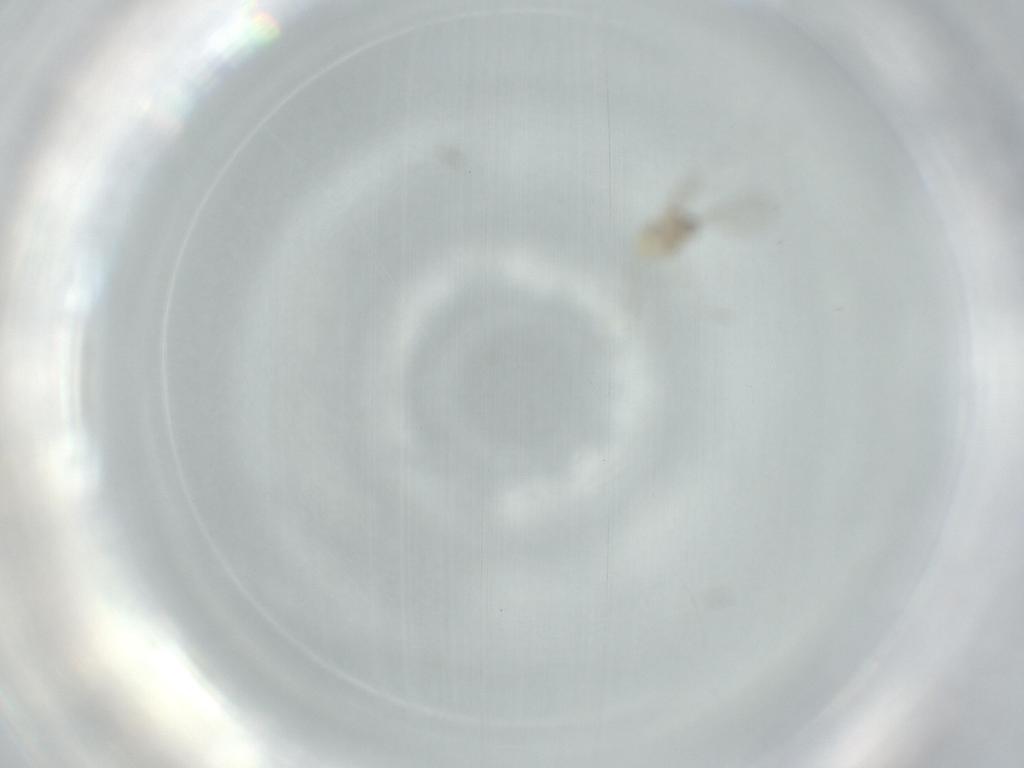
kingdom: Animalia
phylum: Arthropoda
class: Insecta
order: Diptera
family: Cecidomyiidae
